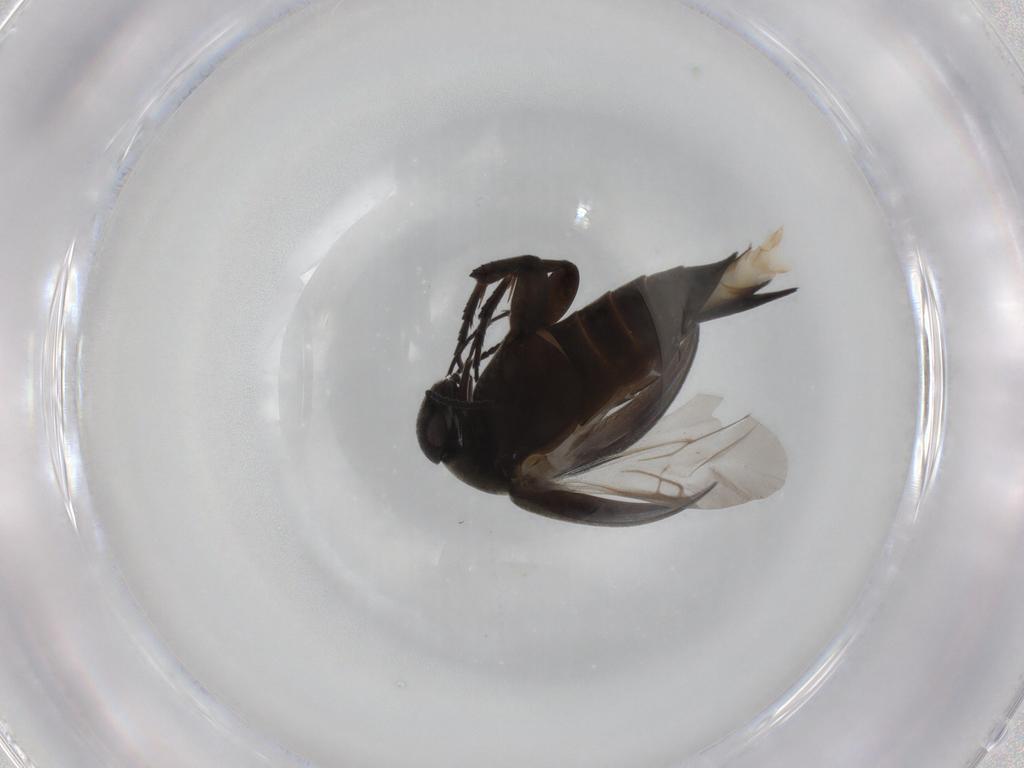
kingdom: Animalia
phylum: Arthropoda
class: Insecta
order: Coleoptera
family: Mordellidae
